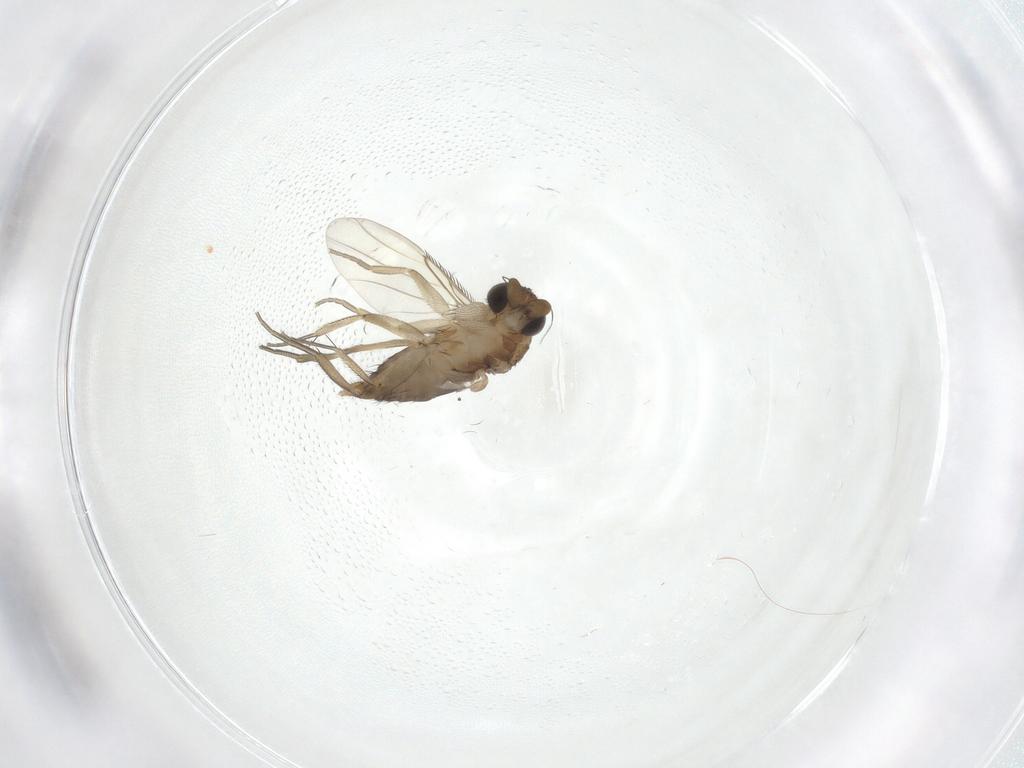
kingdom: Animalia
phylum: Arthropoda
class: Insecta
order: Diptera
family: Phoridae
